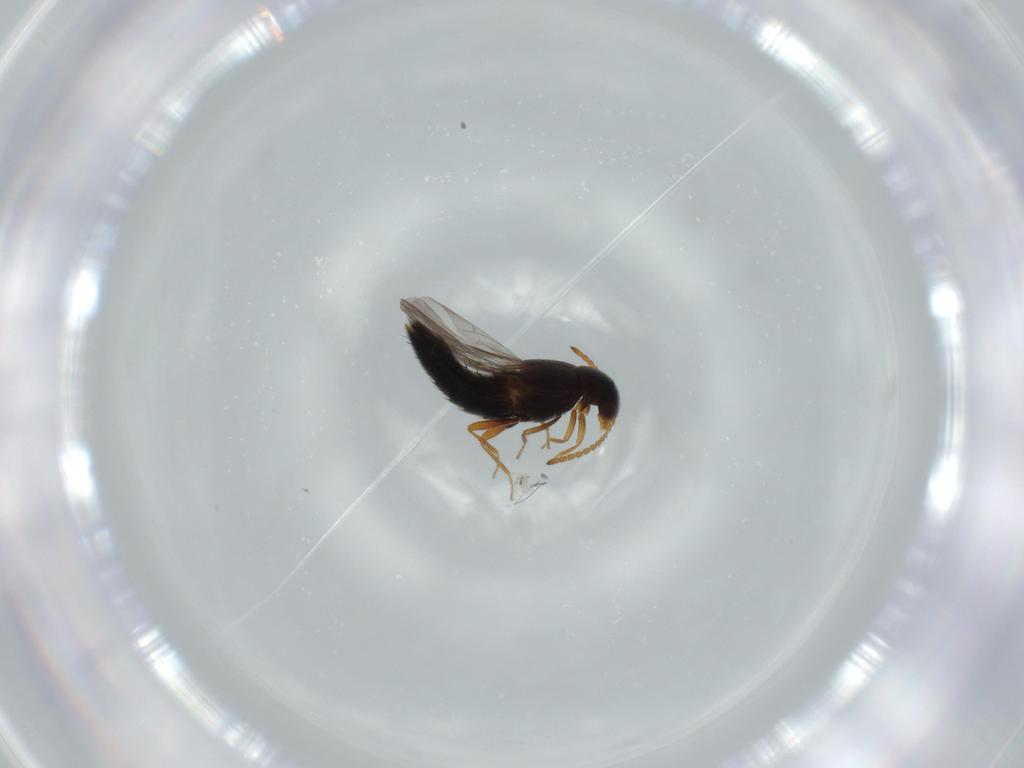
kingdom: Animalia
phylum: Arthropoda
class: Insecta
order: Coleoptera
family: Staphylinidae
